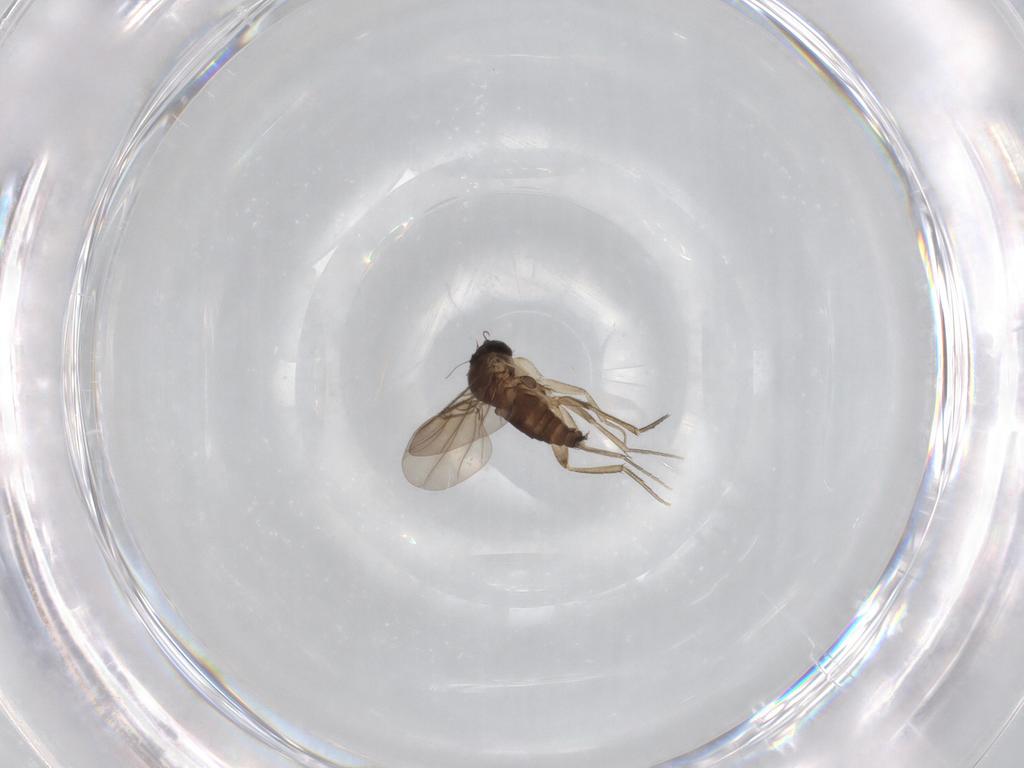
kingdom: Animalia
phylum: Arthropoda
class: Insecta
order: Diptera
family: Phoridae
